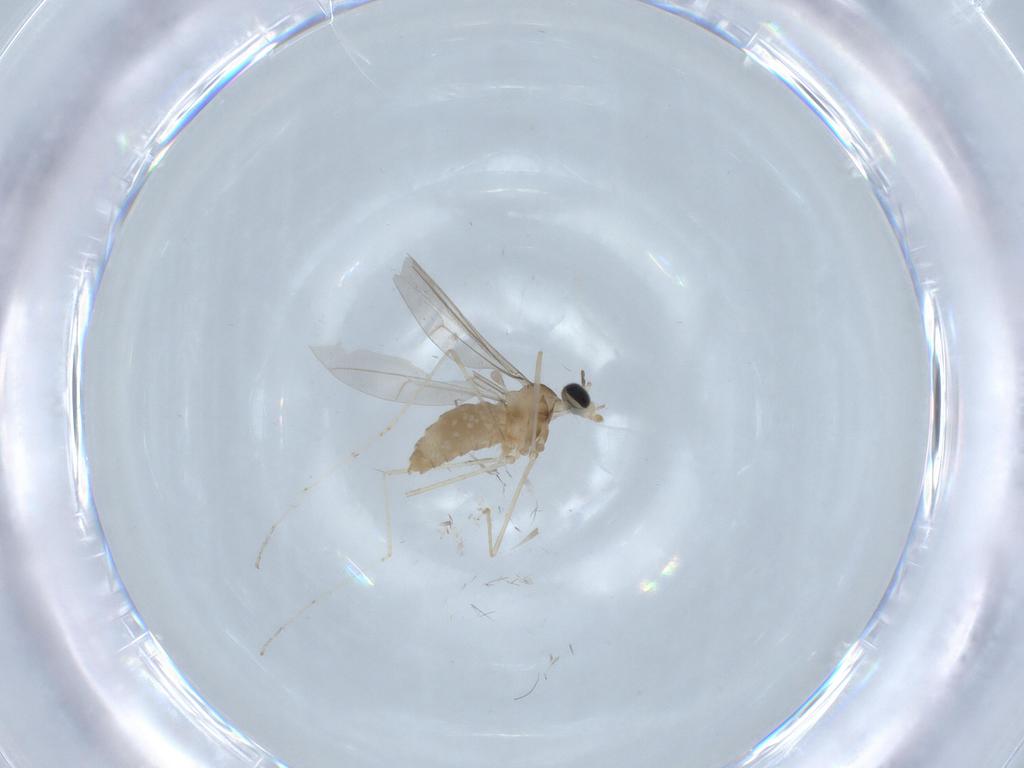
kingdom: Animalia
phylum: Arthropoda
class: Insecta
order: Diptera
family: Cecidomyiidae
